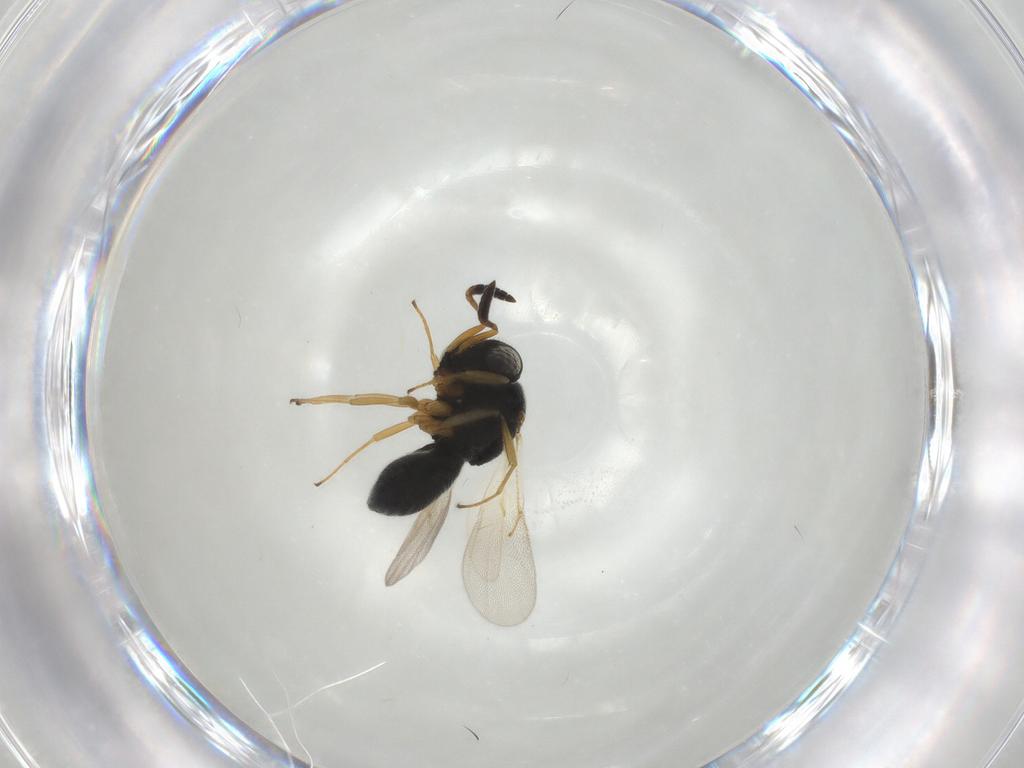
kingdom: Animalia
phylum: Arthropoda
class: Insecta
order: Hymenoptera
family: Scelionidae
